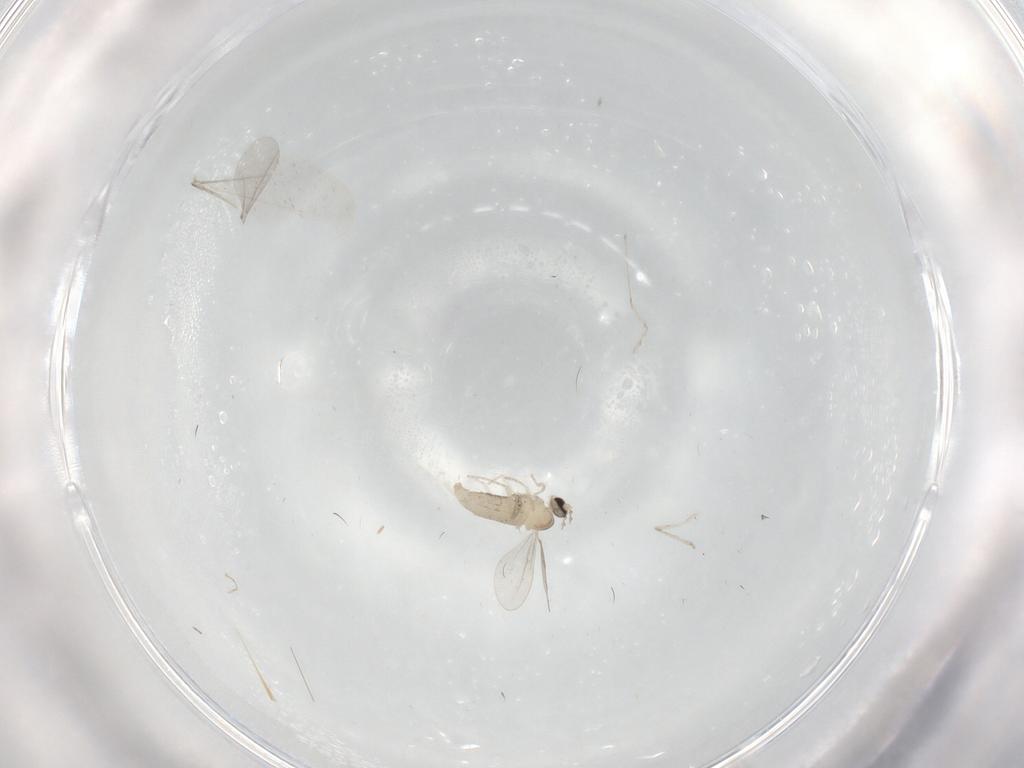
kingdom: Animalia
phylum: Arthropoda
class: Insecta
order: Diptera
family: Cecidomyiidae
